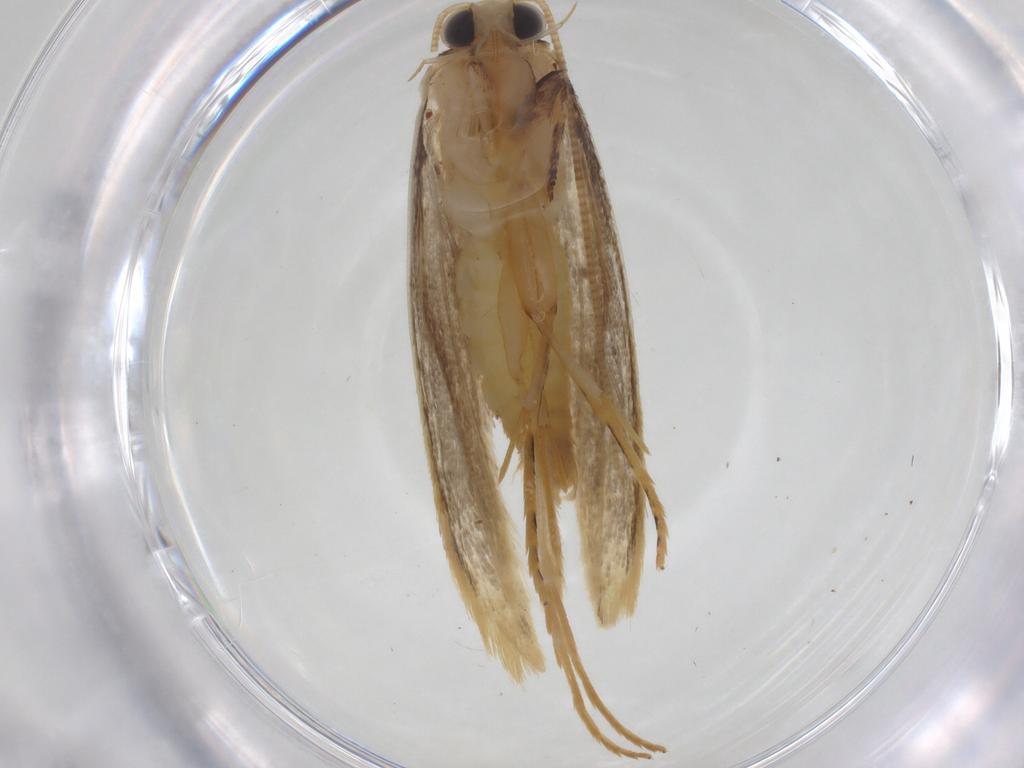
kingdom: Animalia
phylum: Arthropoda
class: Insecta
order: Lepidoptera
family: Tineidae
